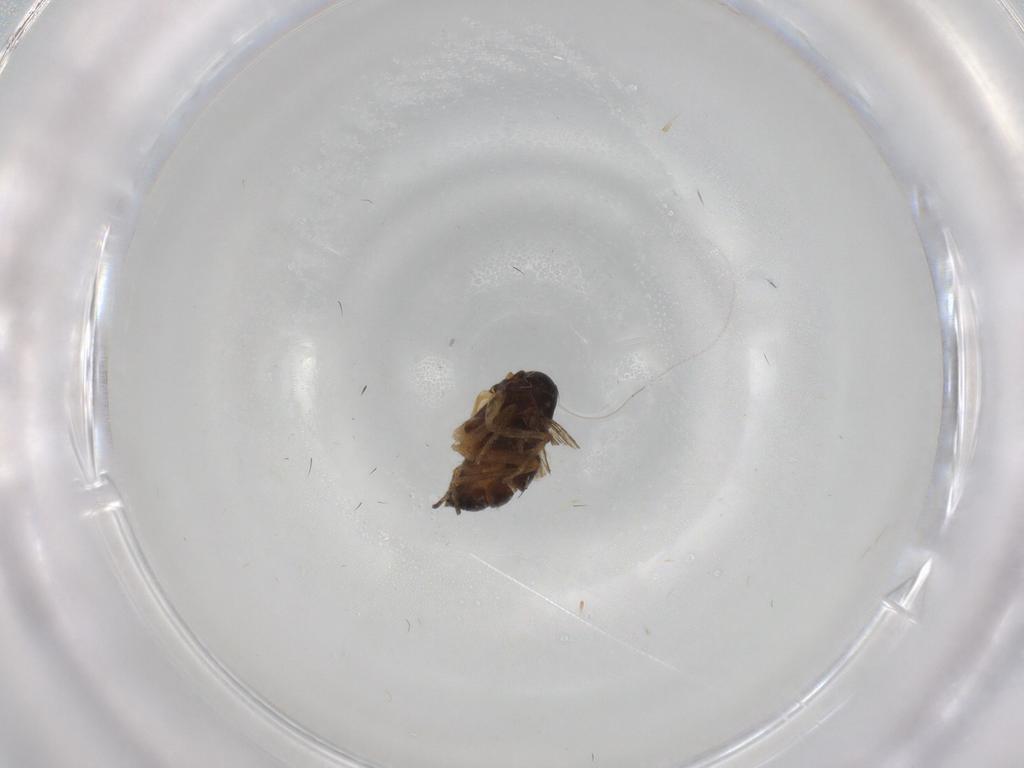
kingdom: Animalia
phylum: Arthropoda
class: Insecta
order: Diptera
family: Dolichopodidae
